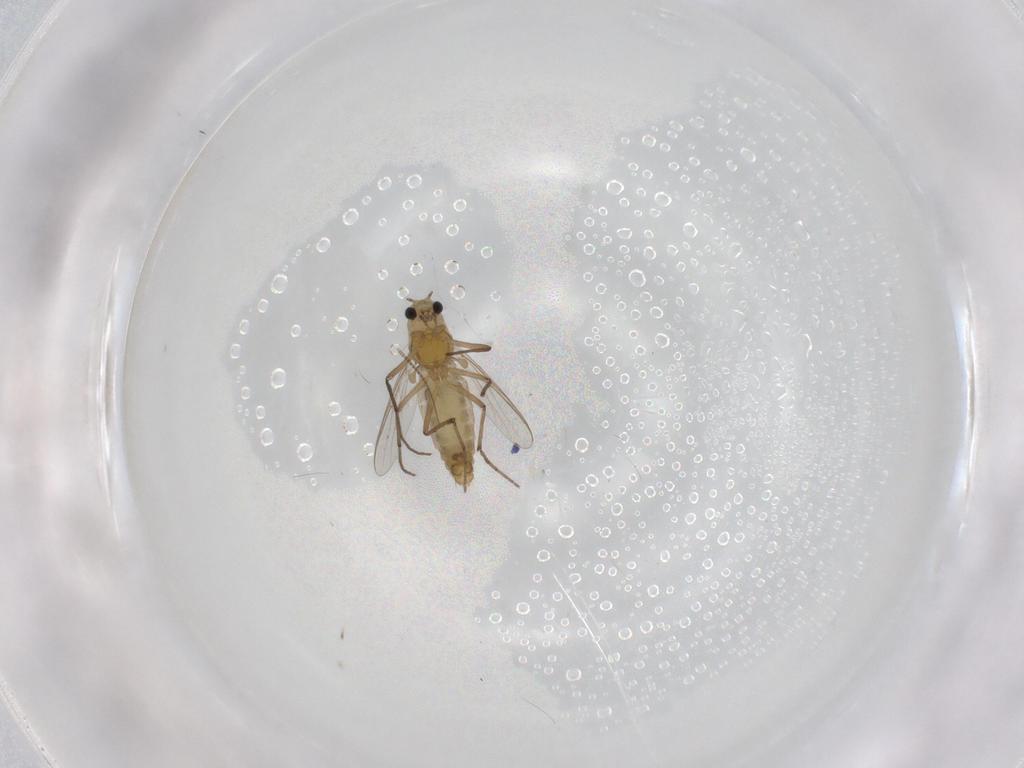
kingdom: Animalia
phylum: Arthropoda
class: Insecta
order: Diptera
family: Chironomidae
